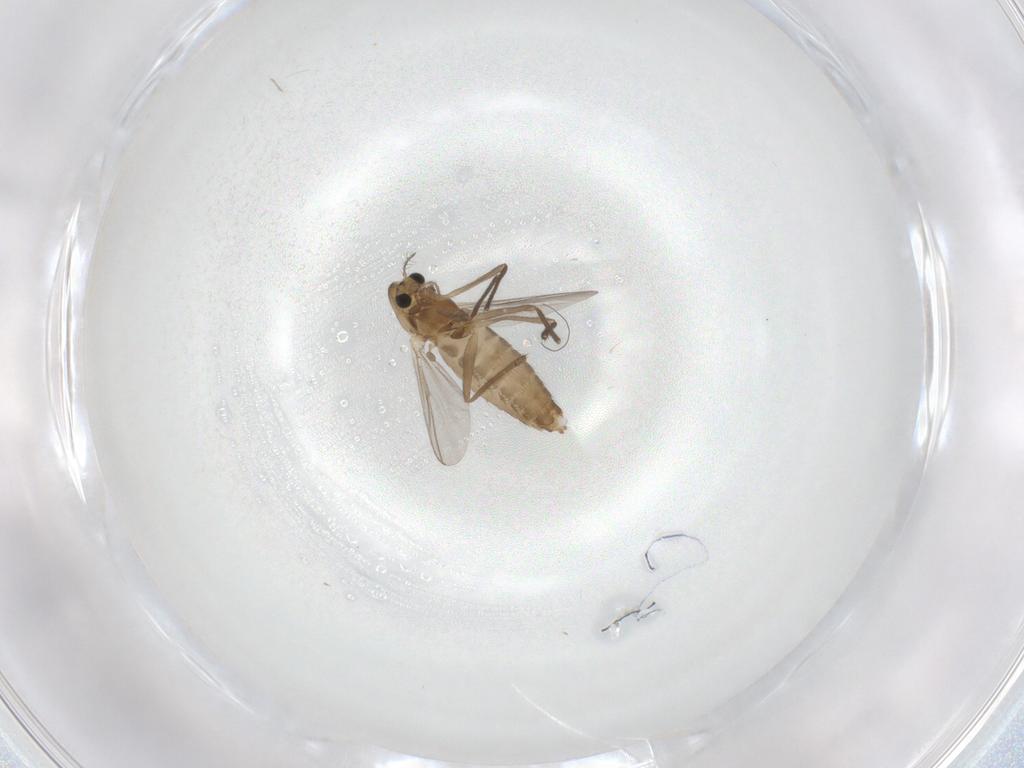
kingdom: Animalia
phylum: Arthropoda
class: Insecta
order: Diptera
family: Chironomidae
